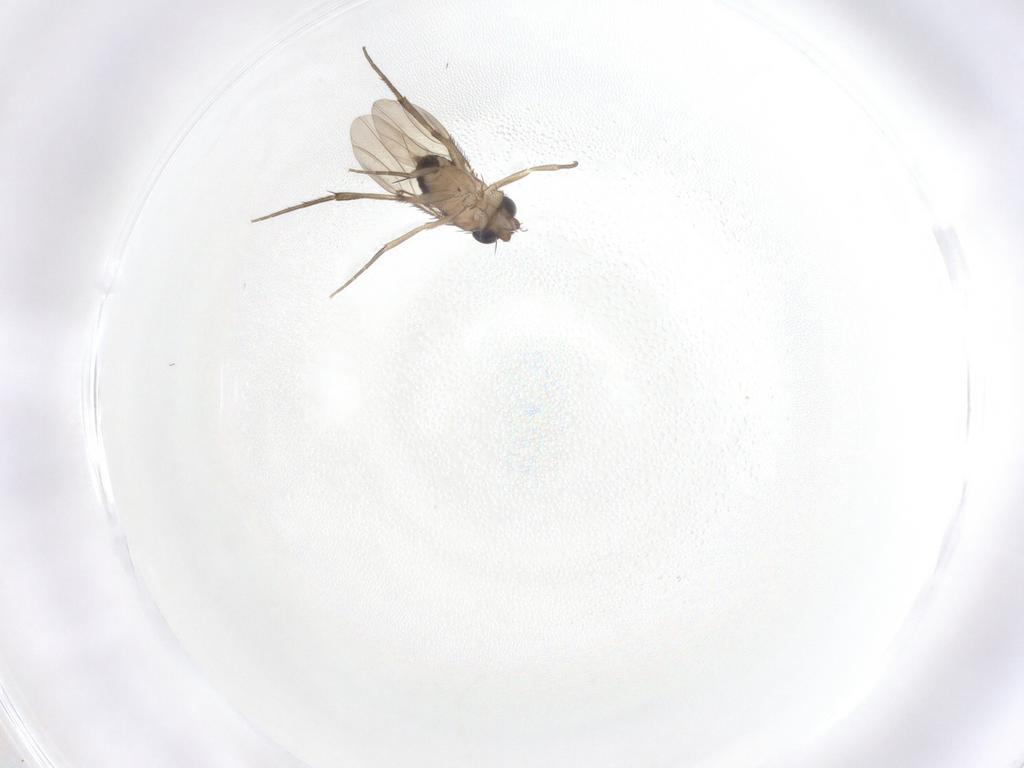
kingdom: Animalia
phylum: Arthropoda
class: Insecta
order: Diptera
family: Phoridae
